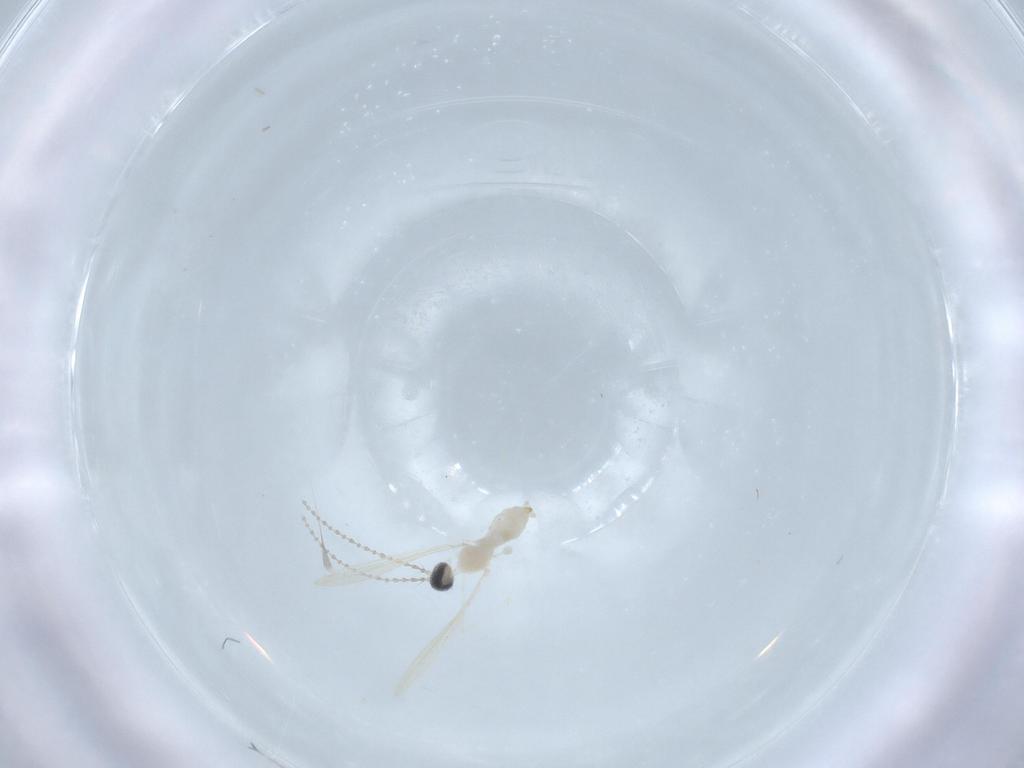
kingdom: Animalia
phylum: Arthropoda
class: Insecta
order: Diptera
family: Cecidomyiidae
